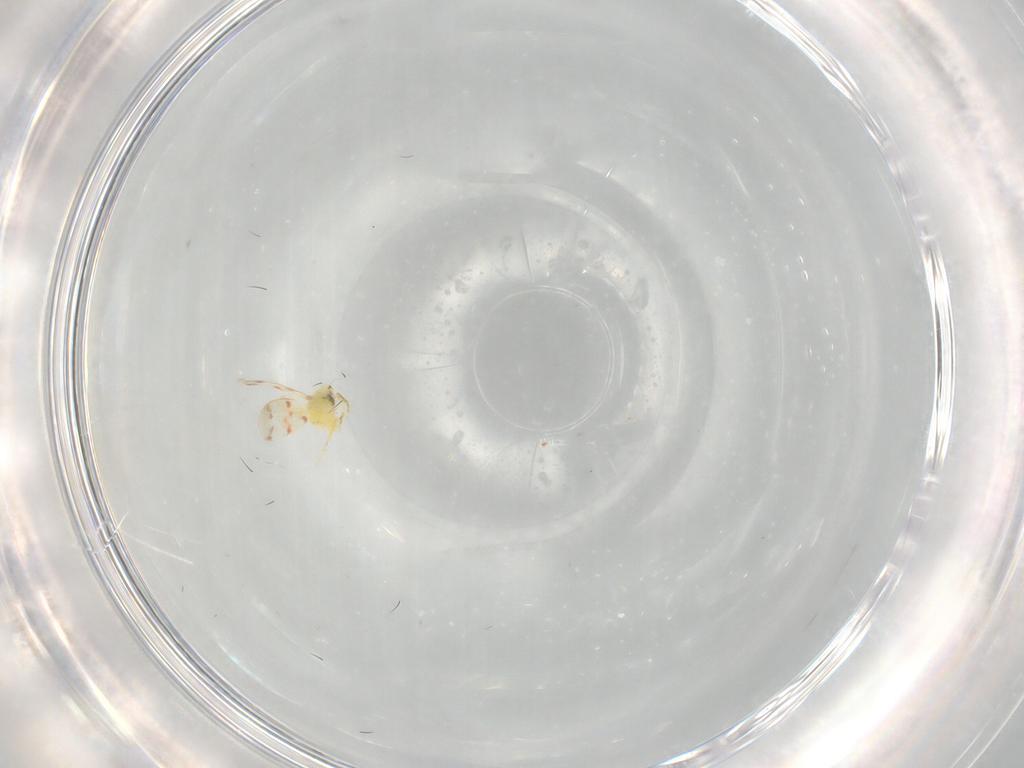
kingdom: Animalia
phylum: Arthropoda
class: Insecta
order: Hemiptera
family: Aleyrodidae
